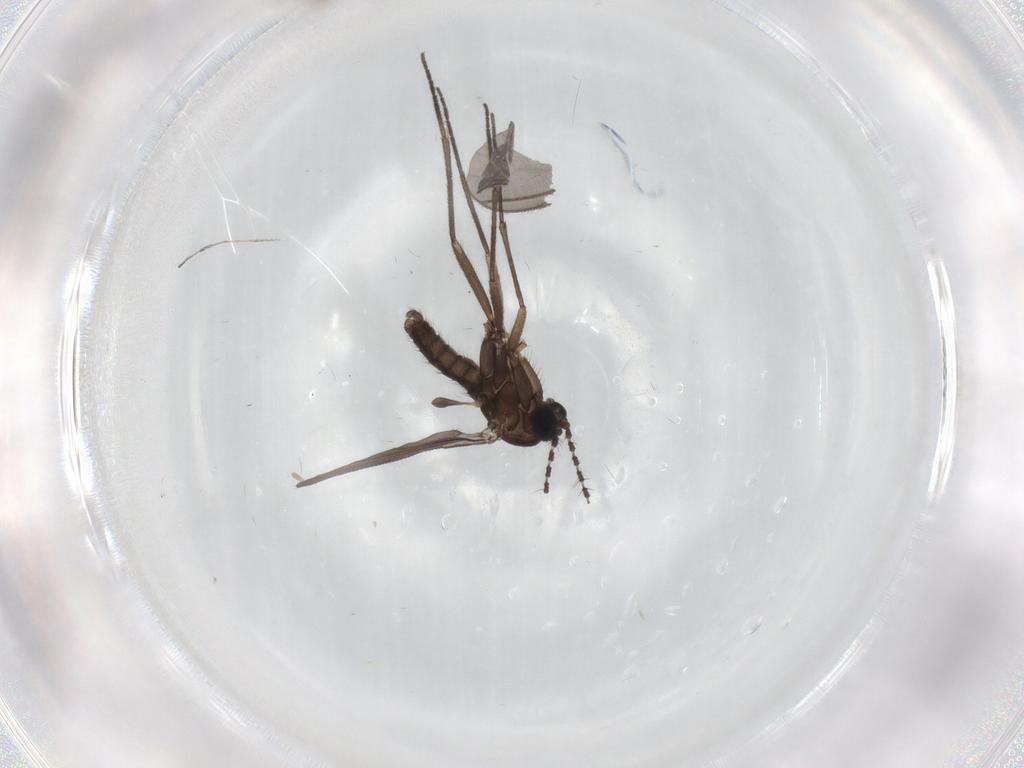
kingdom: Animalia
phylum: Arthropoda
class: Insecta
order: Diptera
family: Sciaridae
